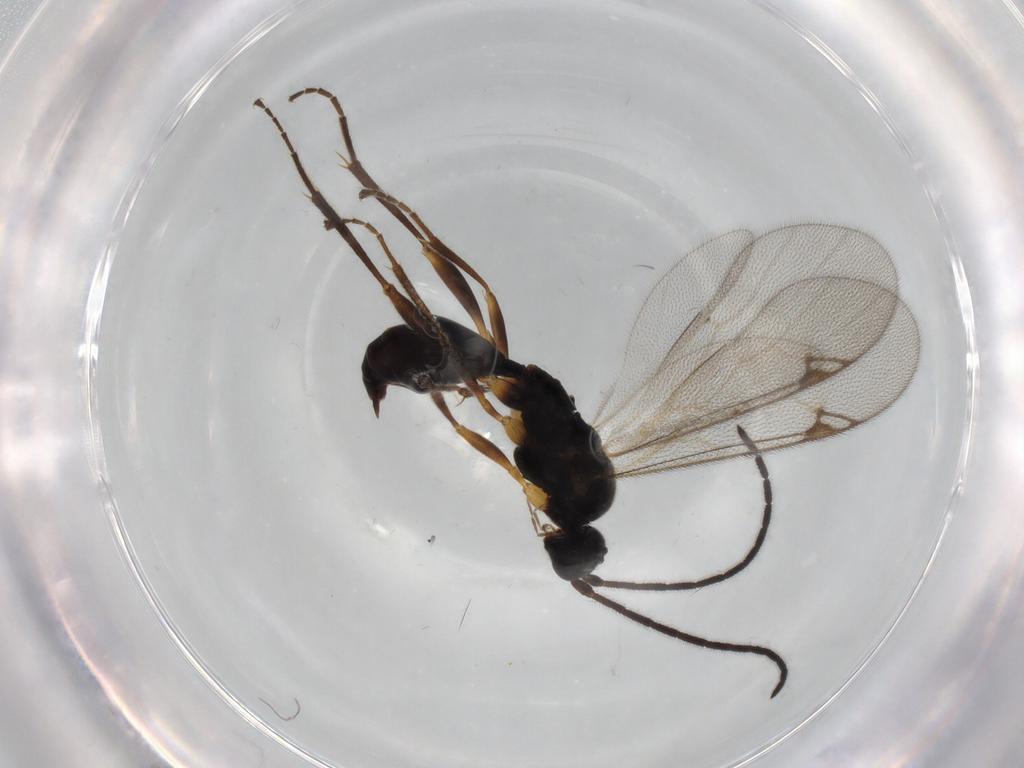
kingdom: Animalia
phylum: Arthropoda
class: Insecta
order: Hymenoptera
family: Proctotrupidae
